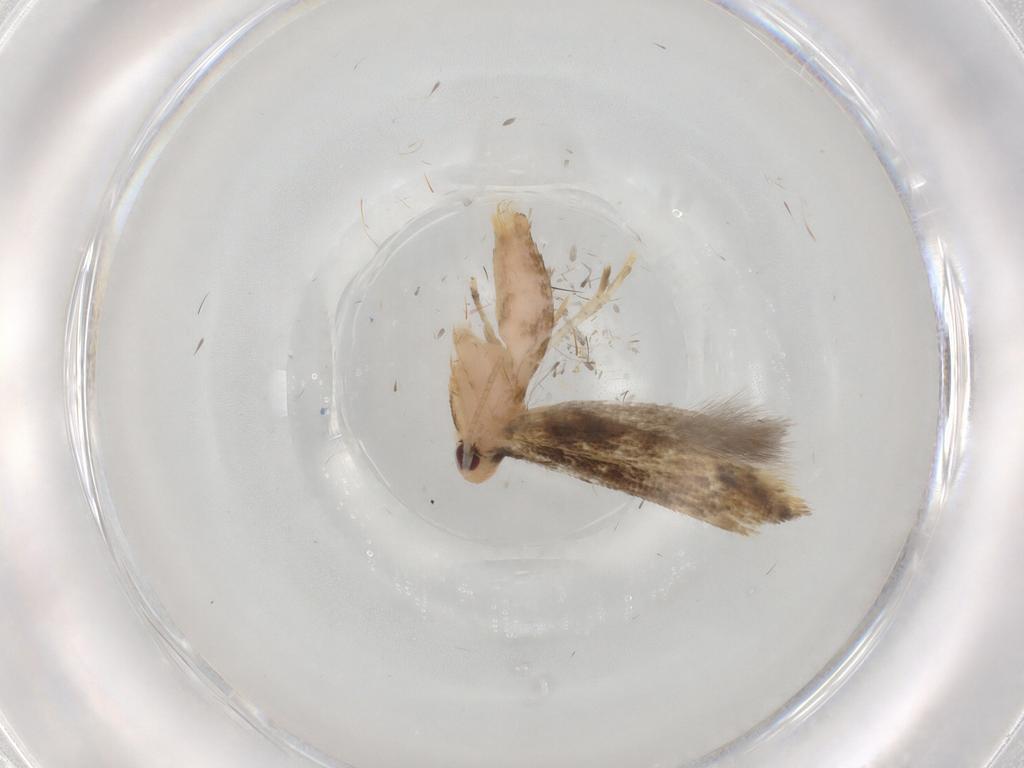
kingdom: Animalia
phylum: Arthropoda
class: Insecta
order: Lepidoptera
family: Momphidae
